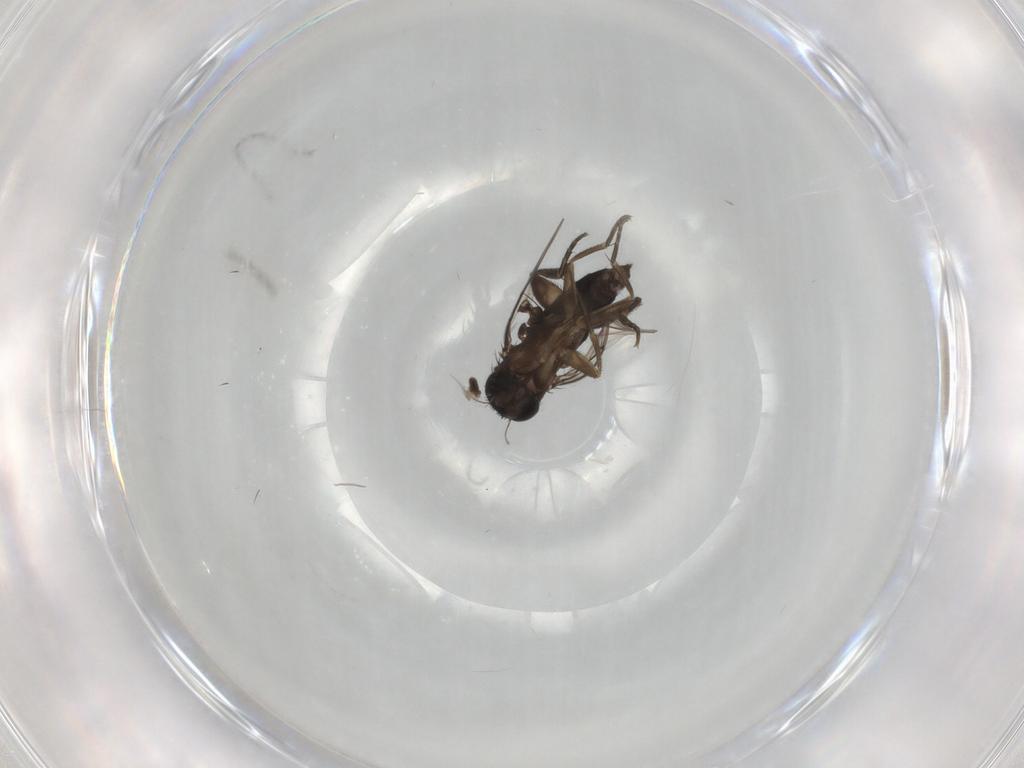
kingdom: Animalia
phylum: Arthropoda
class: Insecta
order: Diptera
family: Phoridae
